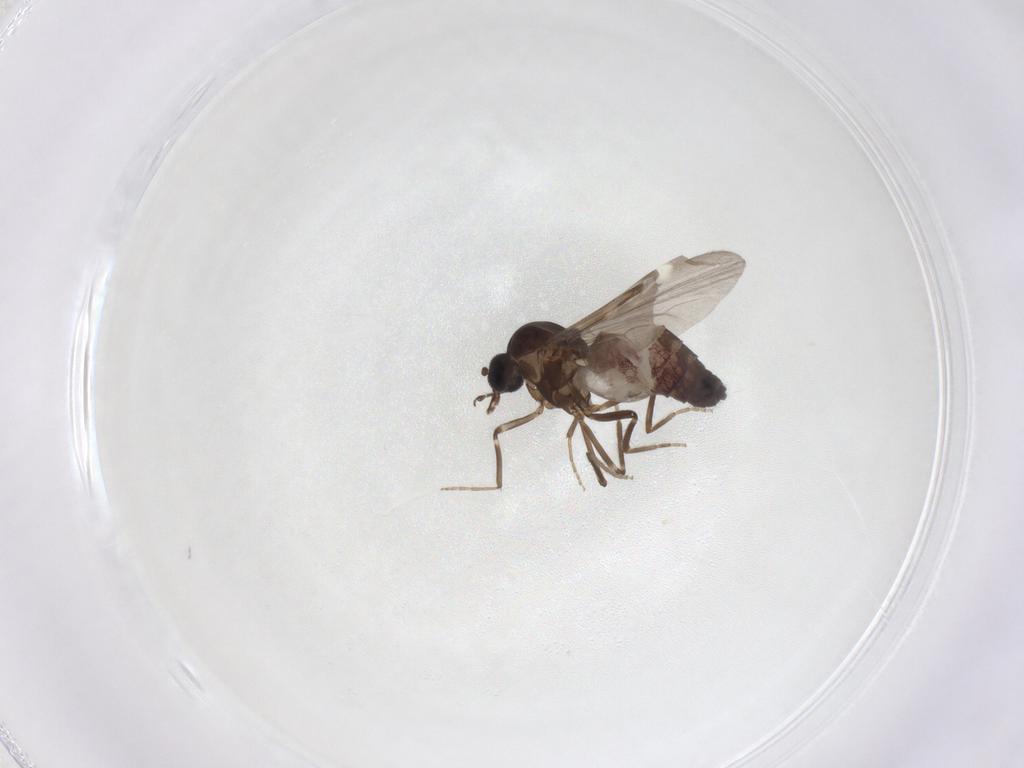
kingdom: Animalia
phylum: Arthropoda
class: Insecta
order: Diptera
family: Ceratopogonidae
